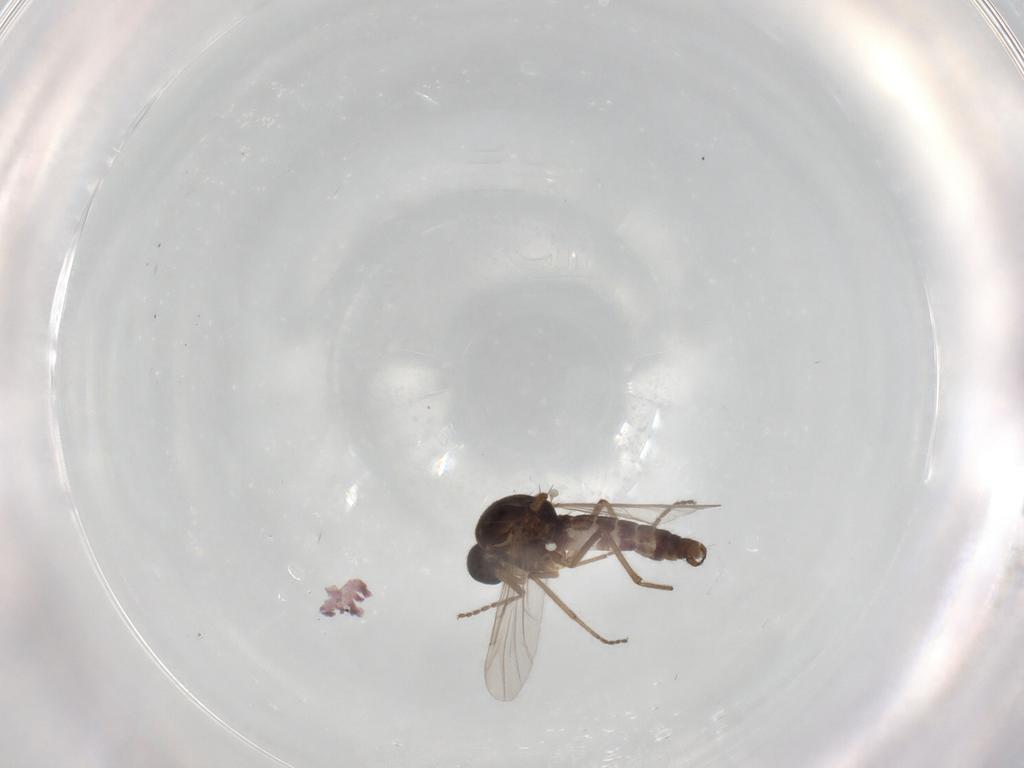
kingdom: Animalia
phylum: Arthropoda
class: Insecta
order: Diptera
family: Ceratopogonidae
